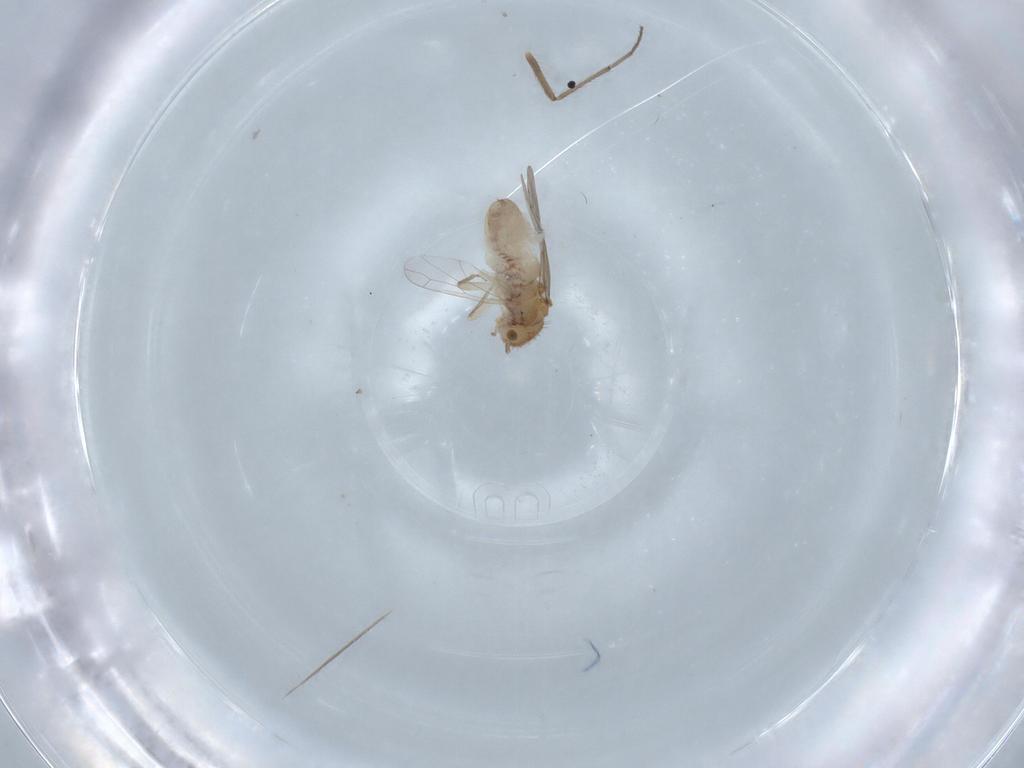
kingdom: Animalia
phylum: Arthropoda
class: Insecta
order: Psocodea
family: Ectopsocidae
